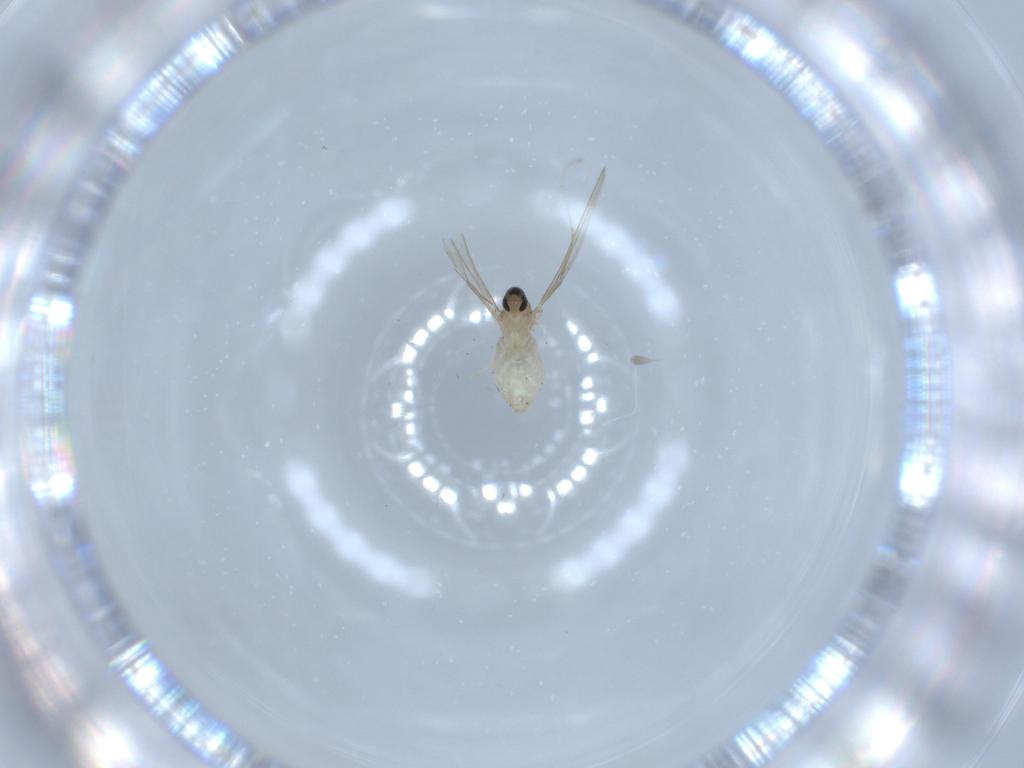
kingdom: Animalia
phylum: Arthropoda
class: Insecta
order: Diptera
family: Cecidomyiidae
